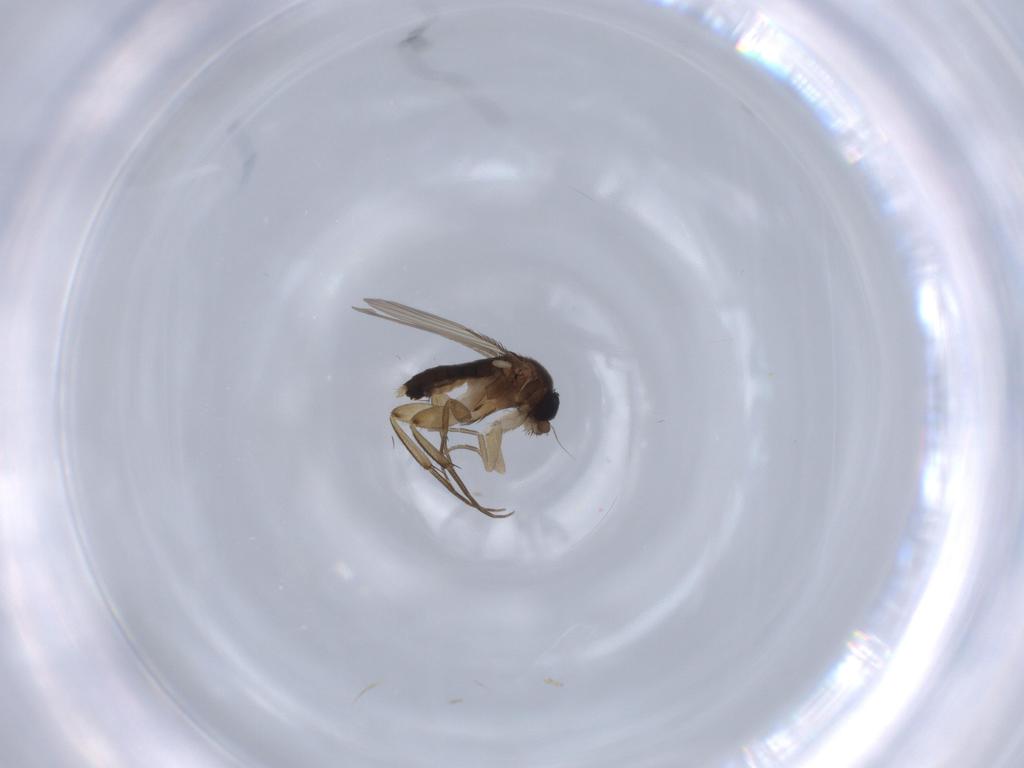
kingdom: Animalia
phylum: Arthropoda
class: Insecta
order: Diptera
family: Phoridae
